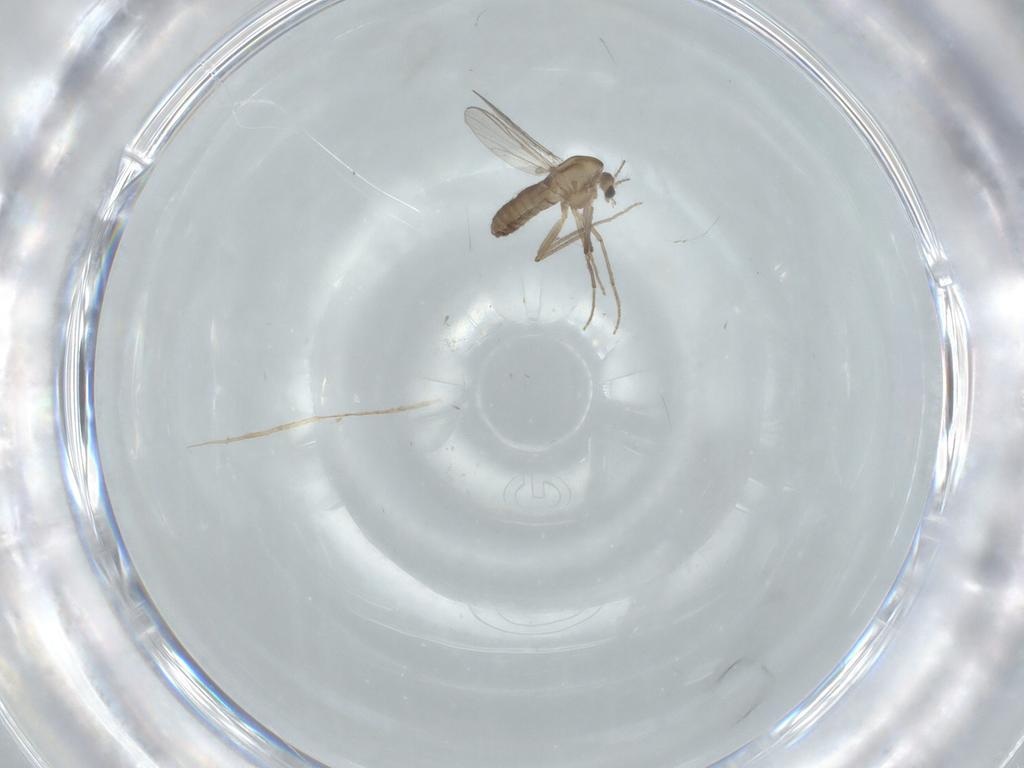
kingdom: Animalia
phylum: Arthropoda
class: Insecta
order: Diptera
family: Chironomidae
